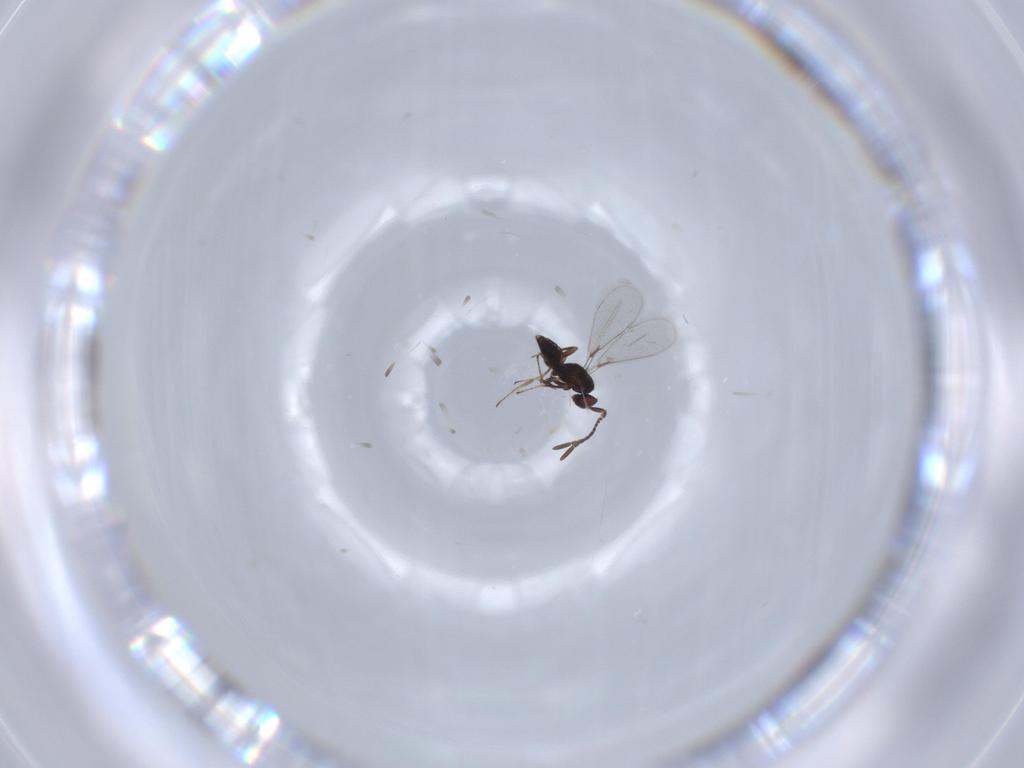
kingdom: Animalia
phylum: Arthropoda
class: Insecta
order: Hymenoptera
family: Mymaridae
